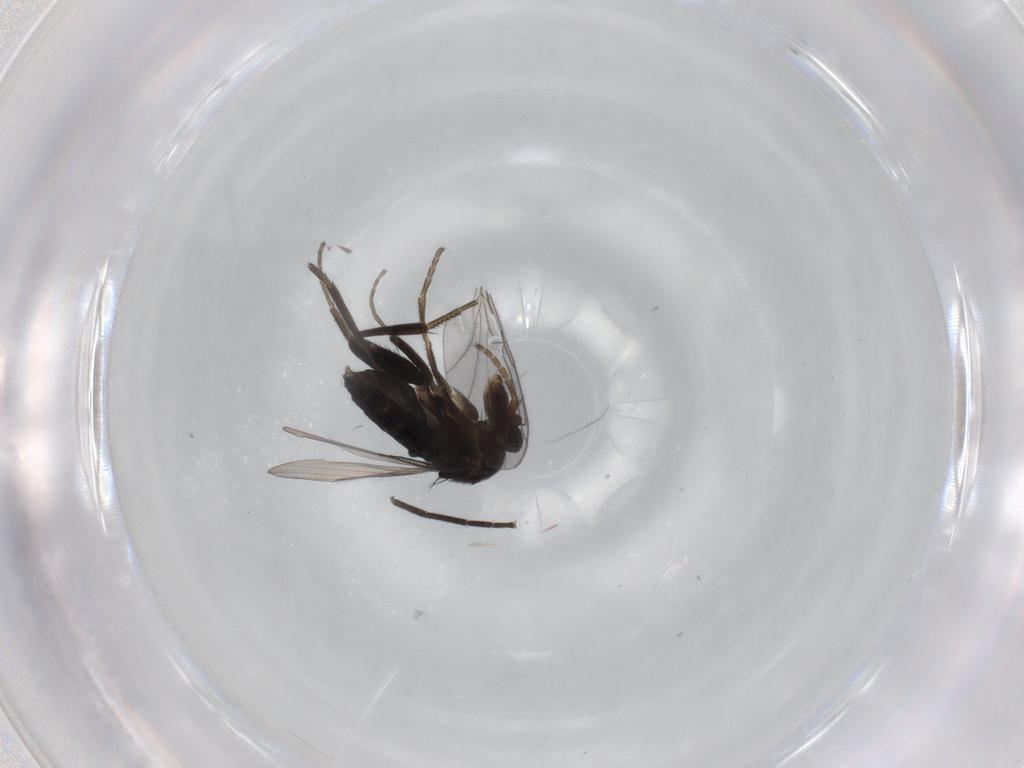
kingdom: Animalia
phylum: Arthropoda
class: Insecta
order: Diptera
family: Phoridae
